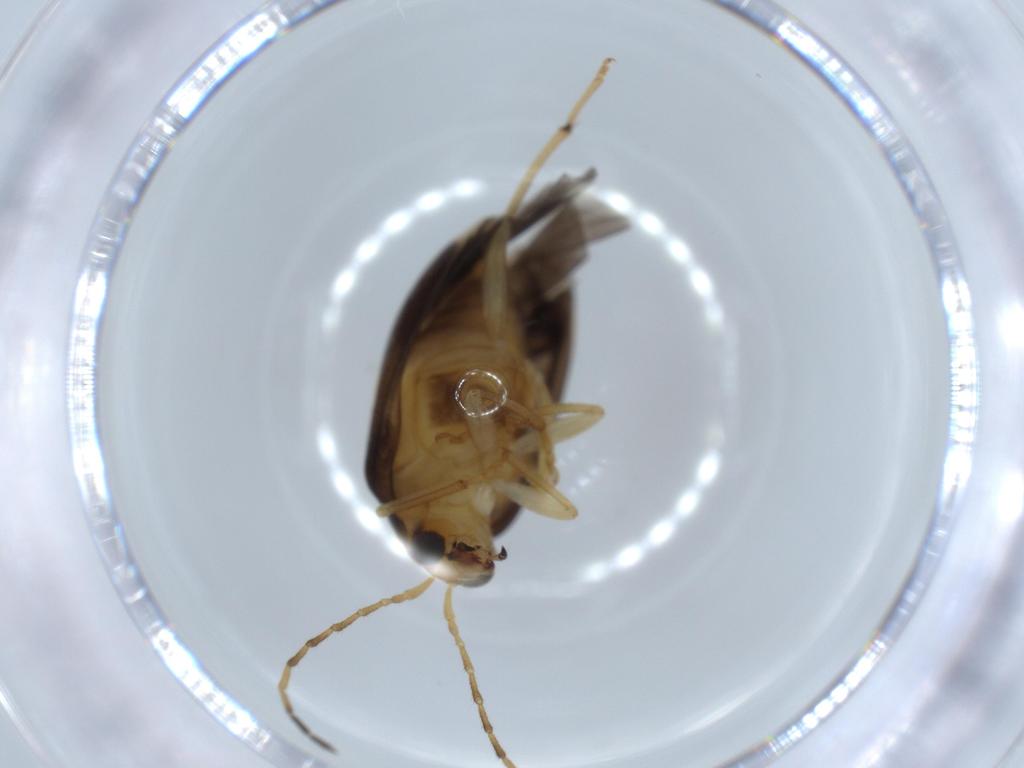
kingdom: Animalia
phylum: Arthropoda
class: Insecta
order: Coleoptera
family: Chrysomelidae
